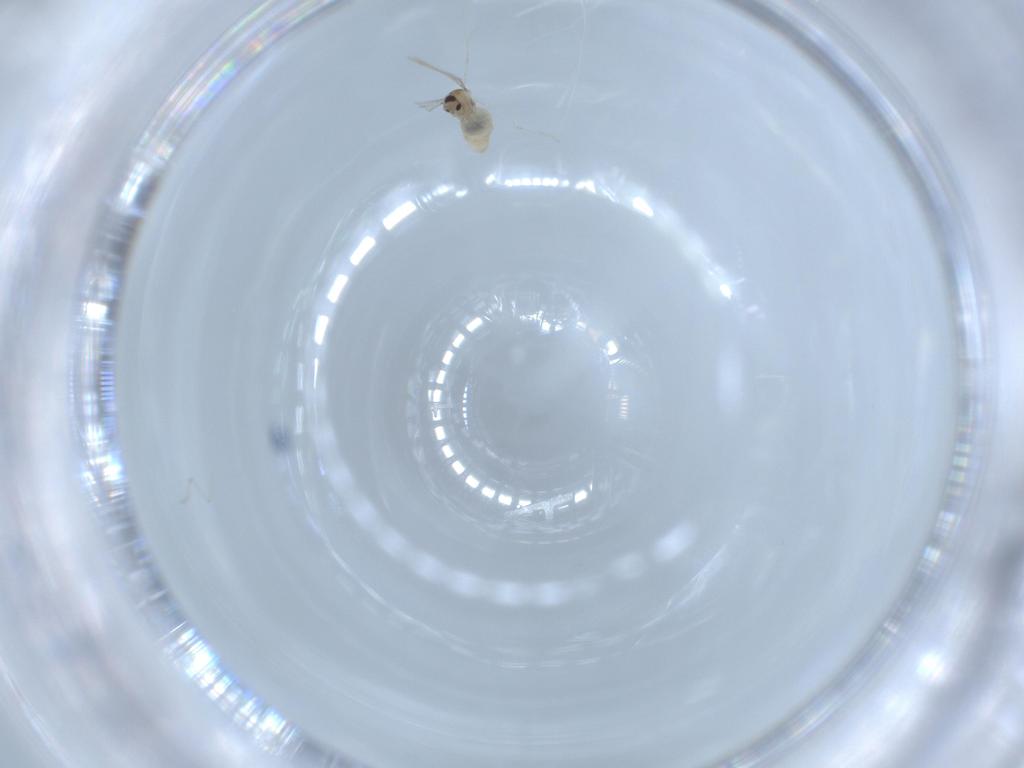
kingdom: Animalia
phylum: Arthropoda
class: Insecta
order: Diptera
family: Cecidomyiidae
